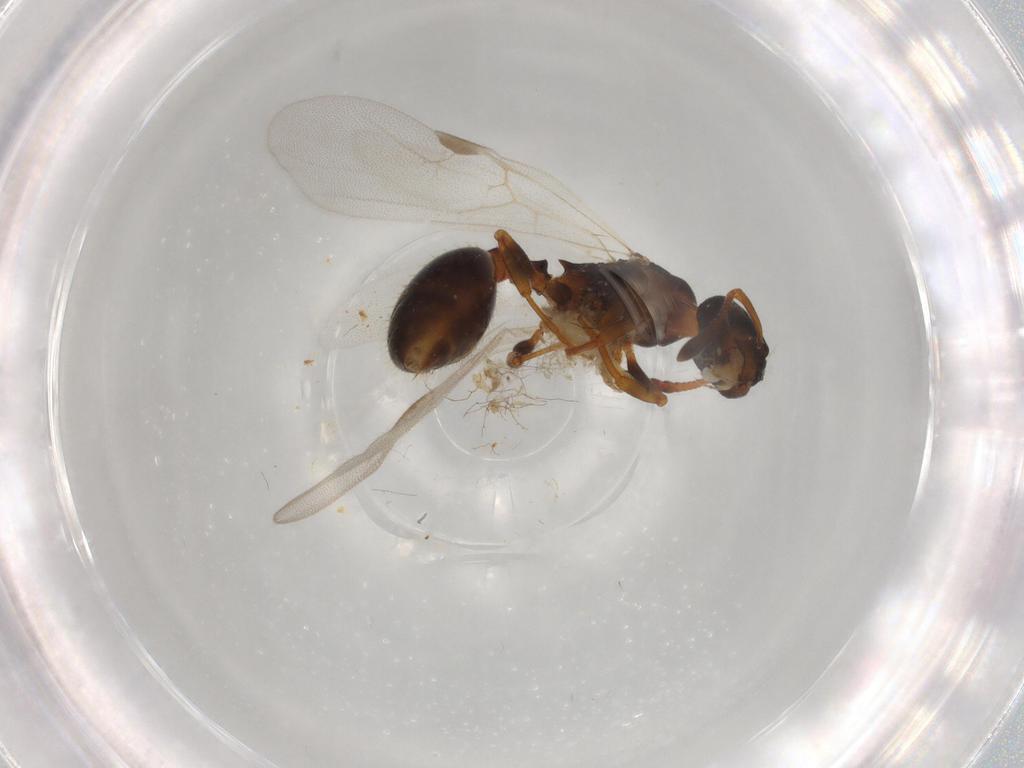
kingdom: Animalia
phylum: Arthropoda
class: Insecta
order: Hymenoptera
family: Formicidae
